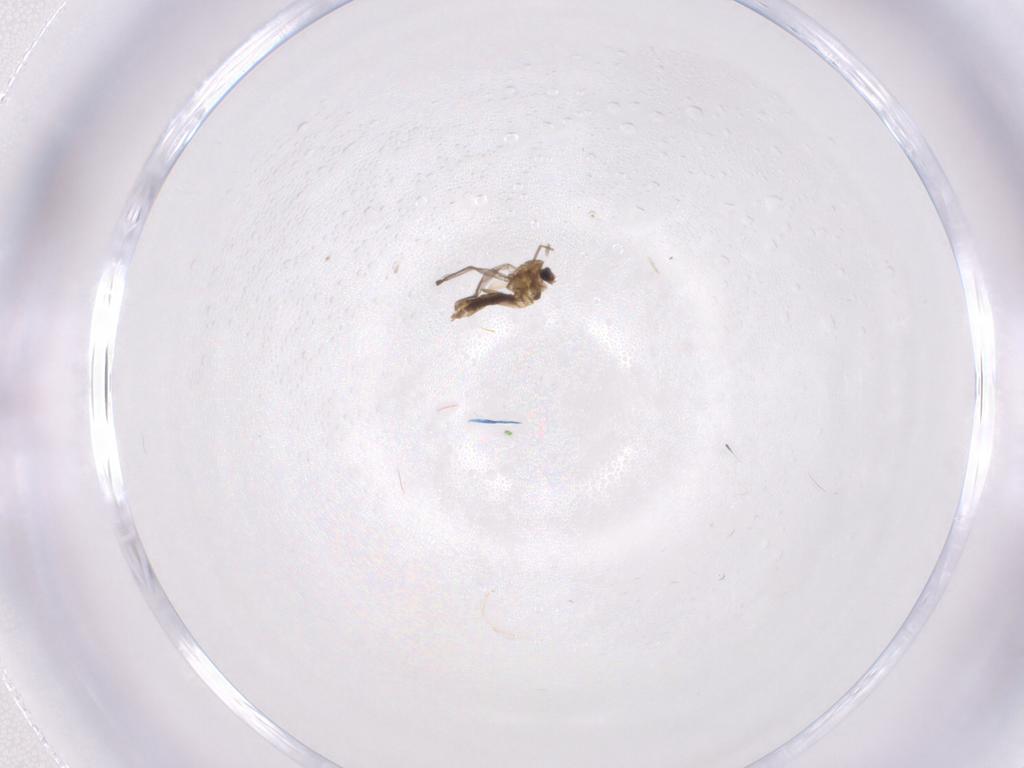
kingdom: Animalia
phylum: Arthropoda
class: Insecta
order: Diptera
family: Chironomidae
